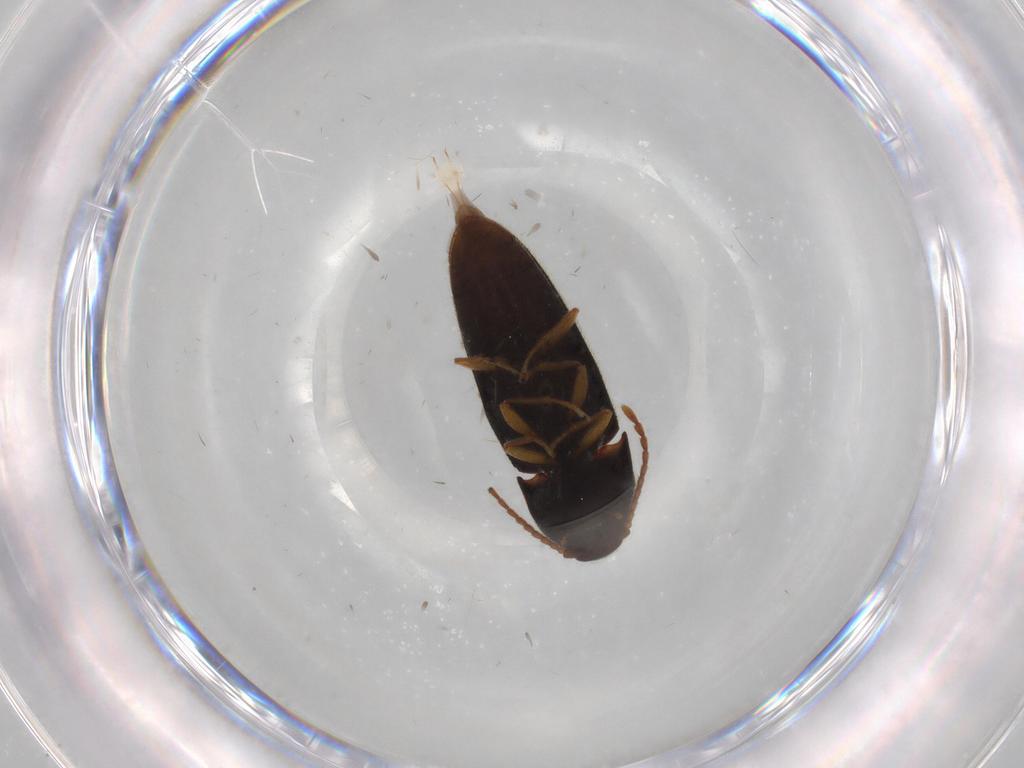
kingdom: Animalia
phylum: Arthropoda
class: Insecta
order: Coleoptera
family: Elateridae
